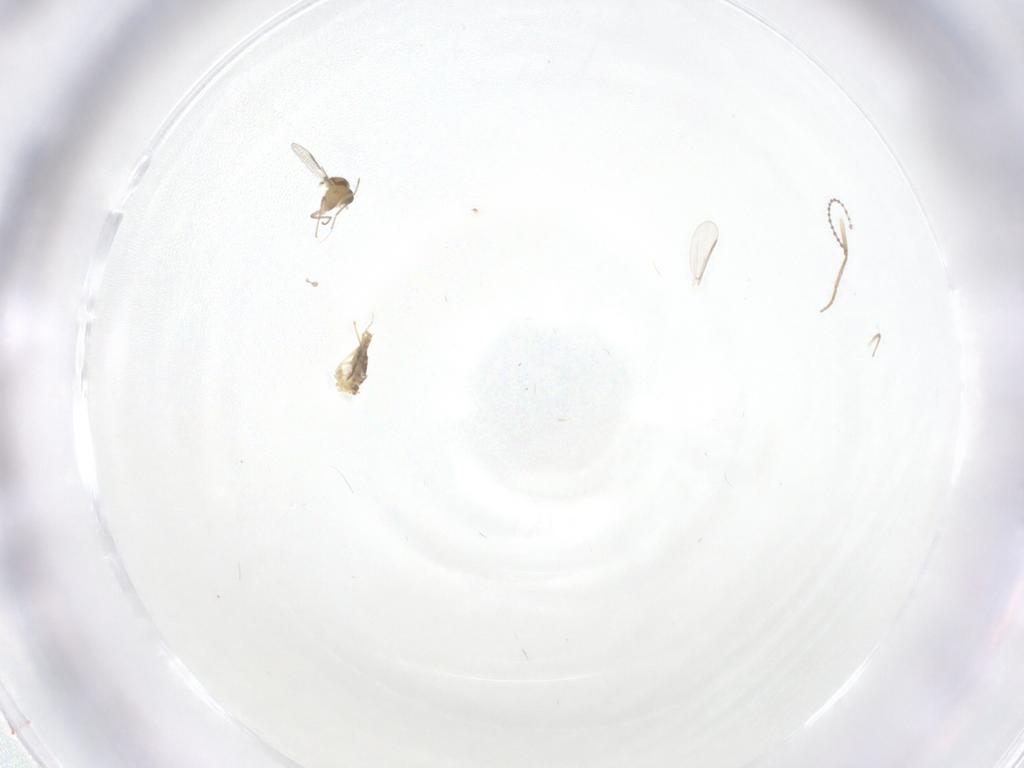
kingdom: Animalia
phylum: Arthropoda
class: Insecta
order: Diptera
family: Chironomidae
